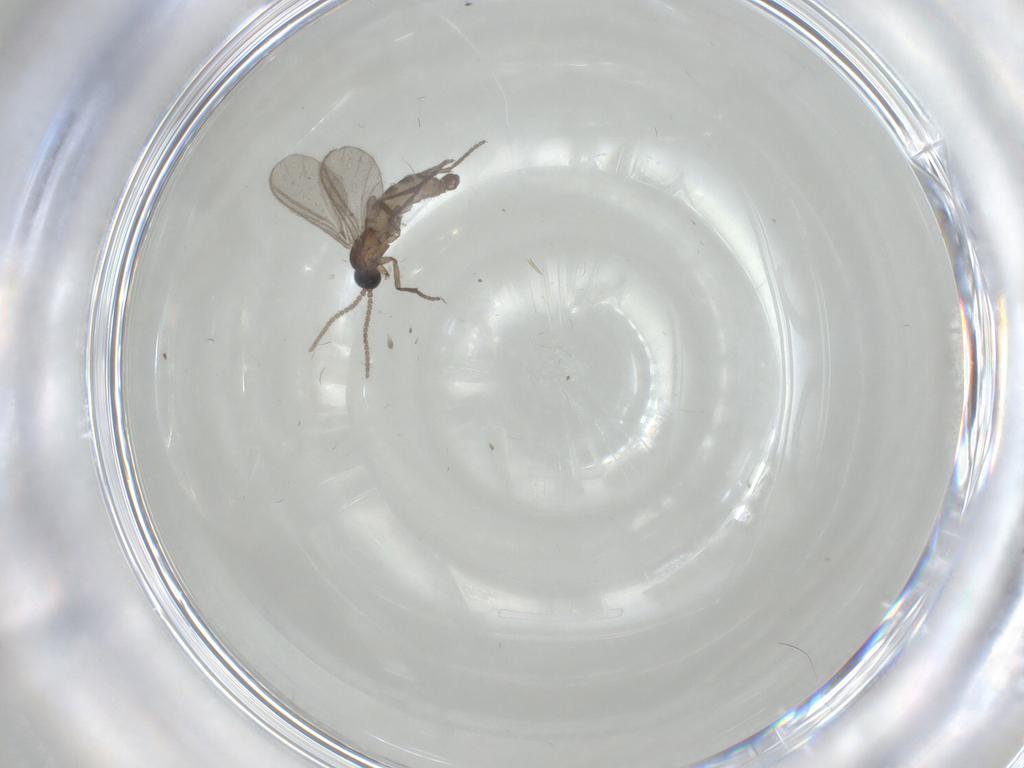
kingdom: Animalia
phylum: Arthropoda
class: Insecta
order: Diptera
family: Sciaridae
